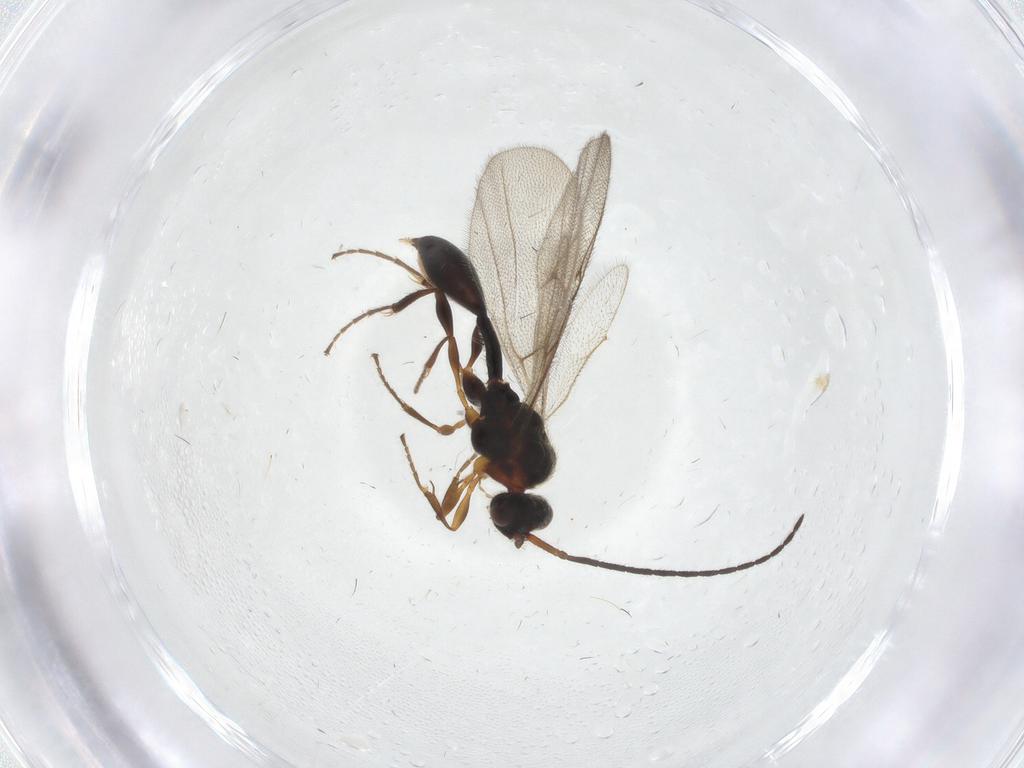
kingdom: Animalia
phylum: Arthropoda
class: Insecta
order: Hymenoptera
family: Diapriidae
